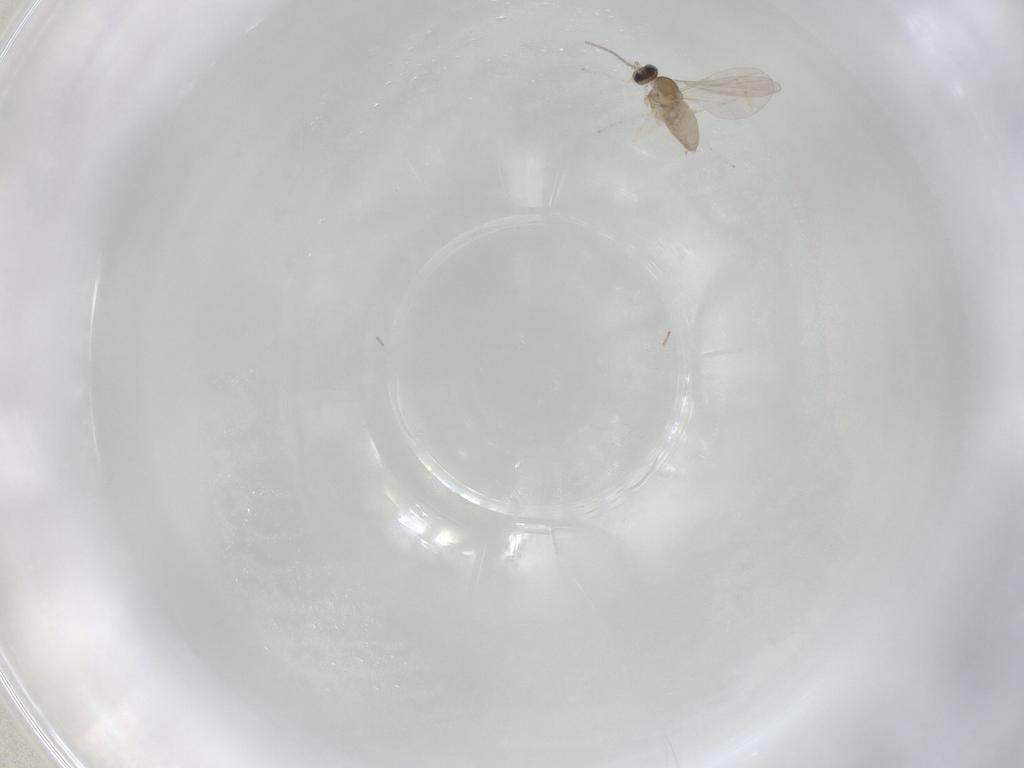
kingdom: Animalia
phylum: Arthropoda
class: Insecta
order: Diptera
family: Cecidomyiidae
